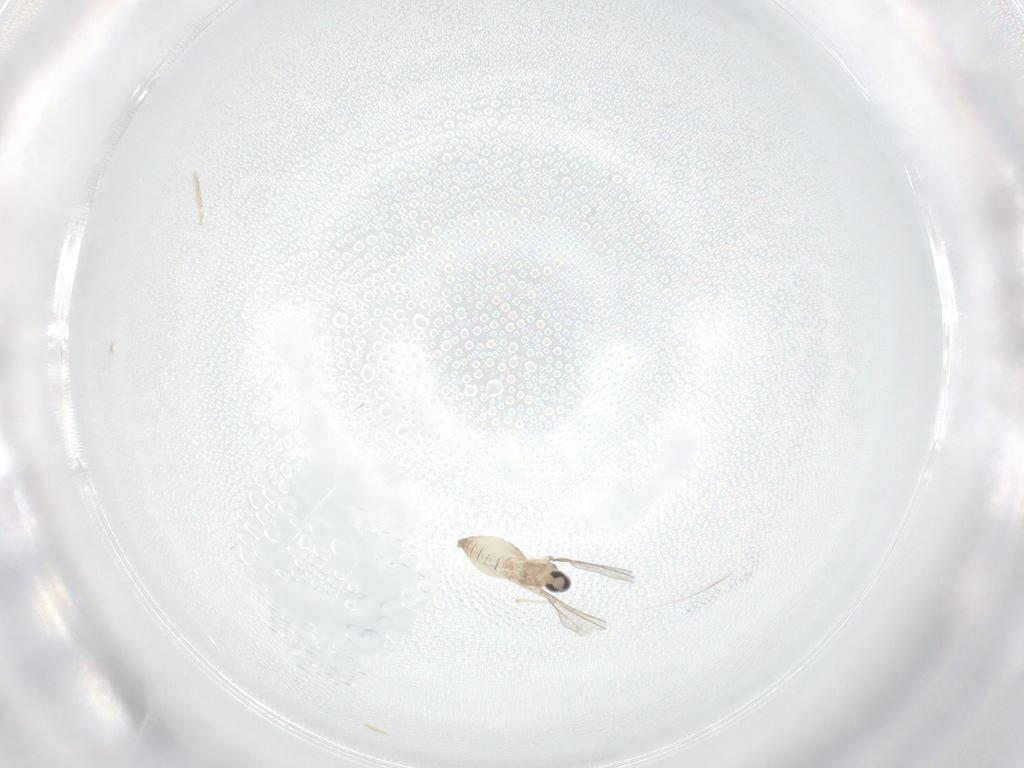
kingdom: Animalia
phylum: Arthropoda
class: Insecta
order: Diptera
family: Cecidomyiidae
